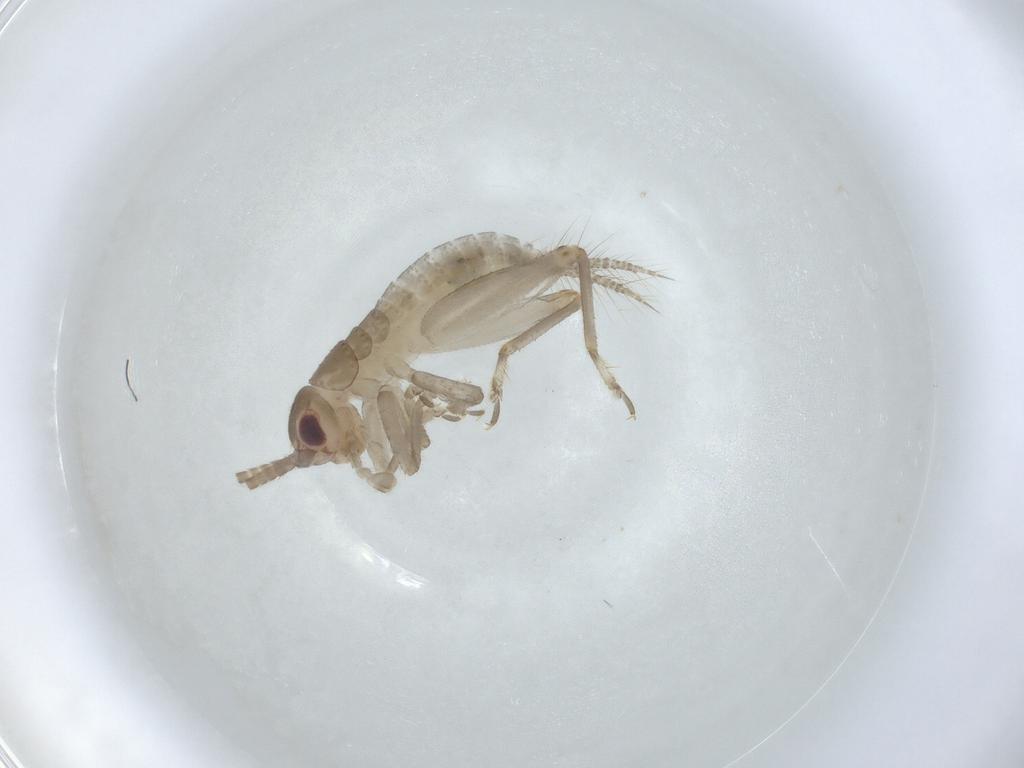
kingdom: Animalia
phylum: Arthropoda
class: Insecta
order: Orthoptera
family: Gryllidae
